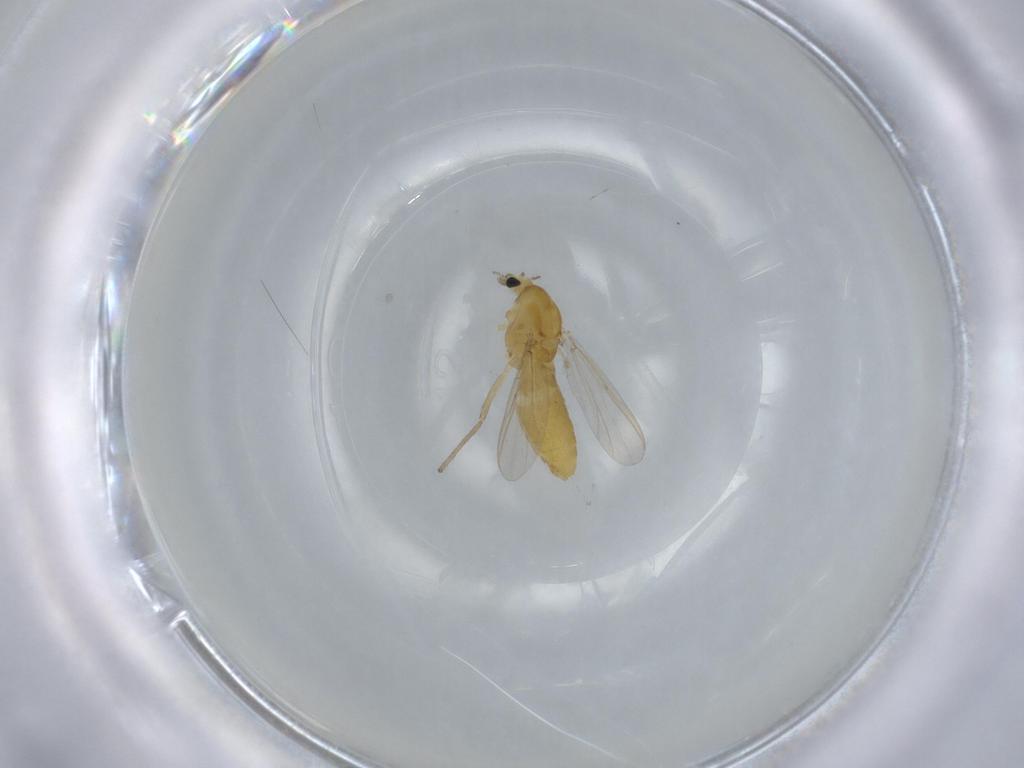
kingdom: Animalia
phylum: Arthropoda
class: Insecta
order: Diptera
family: Chironomidae
